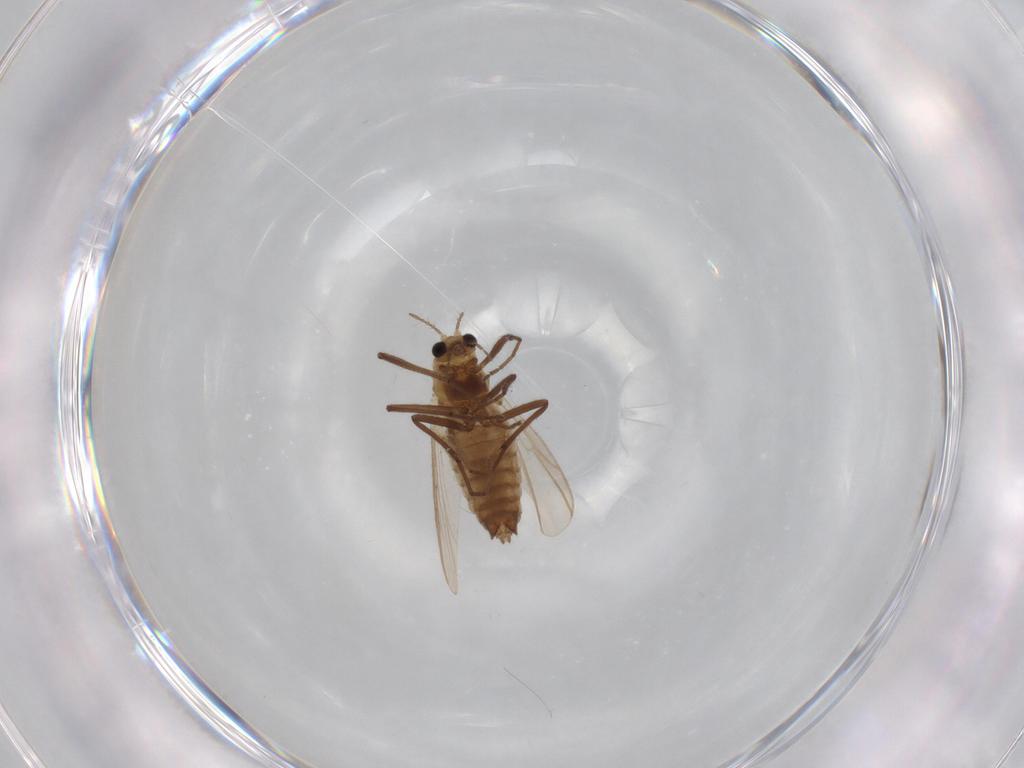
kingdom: Animalia
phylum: Arthropoda
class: Insecta
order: Diptera
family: Chironomidae
